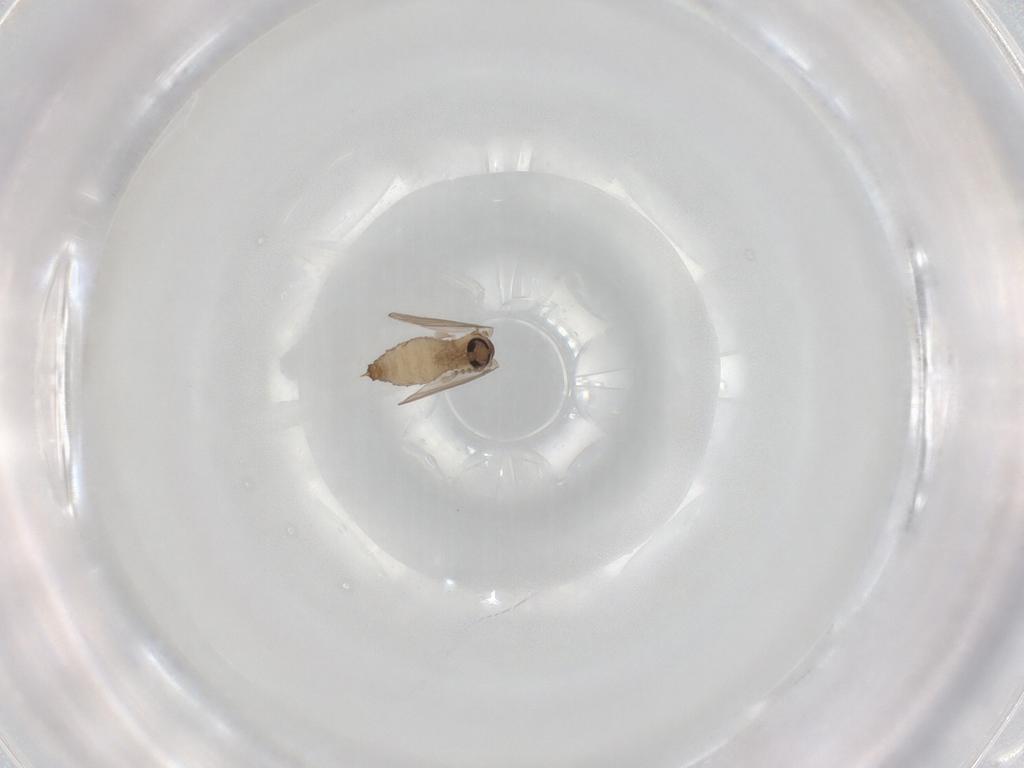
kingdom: Animalia
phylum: Arthropoda
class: Insecta
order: Diptera
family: Psychodidae
